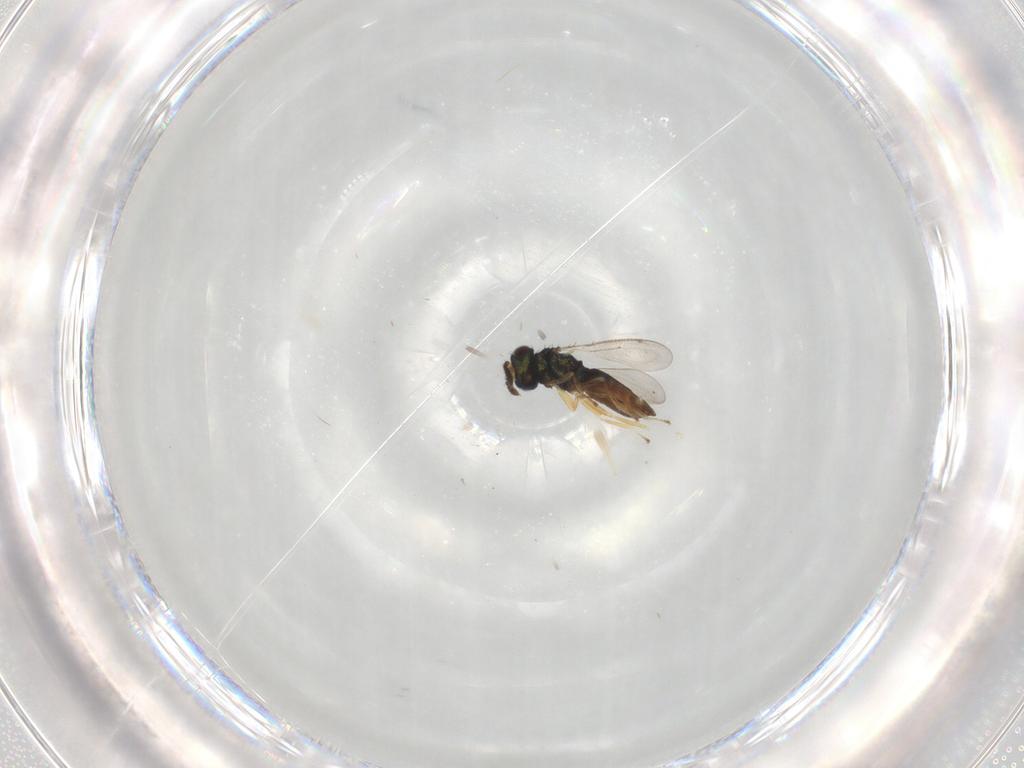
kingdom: Animalia
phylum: Arthropoda
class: Insecta
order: Hymenoptera
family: Eulophidae
